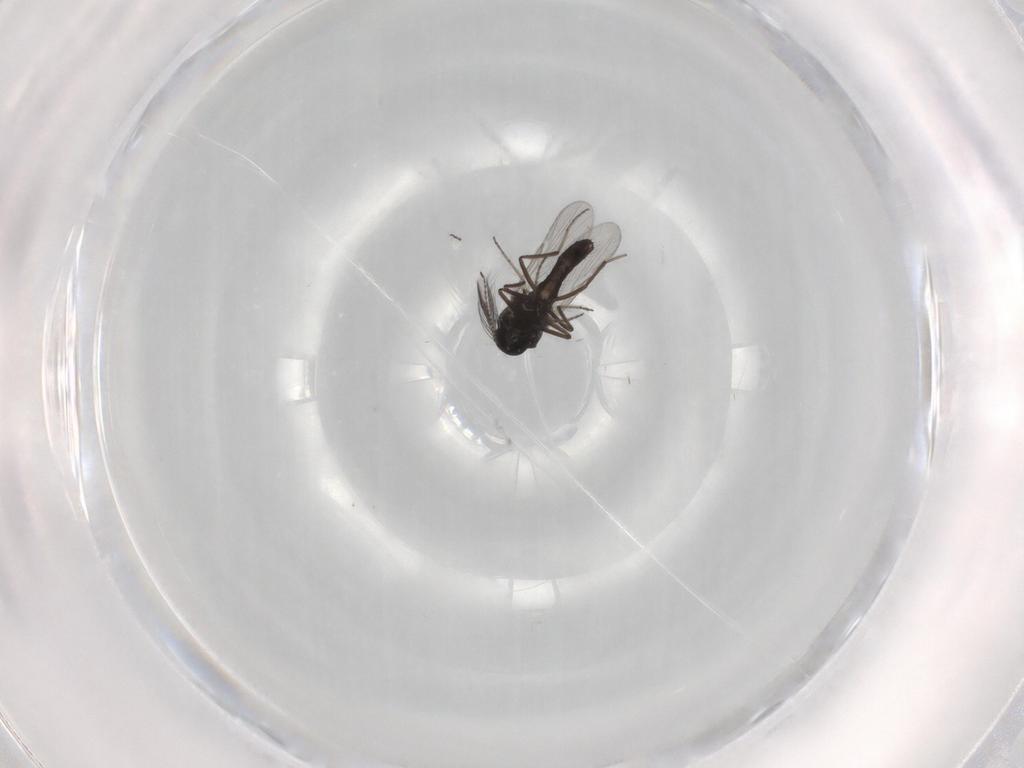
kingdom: Animalia
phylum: Arthropoda
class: Insecta
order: Diptera
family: Ceratopogonidae
